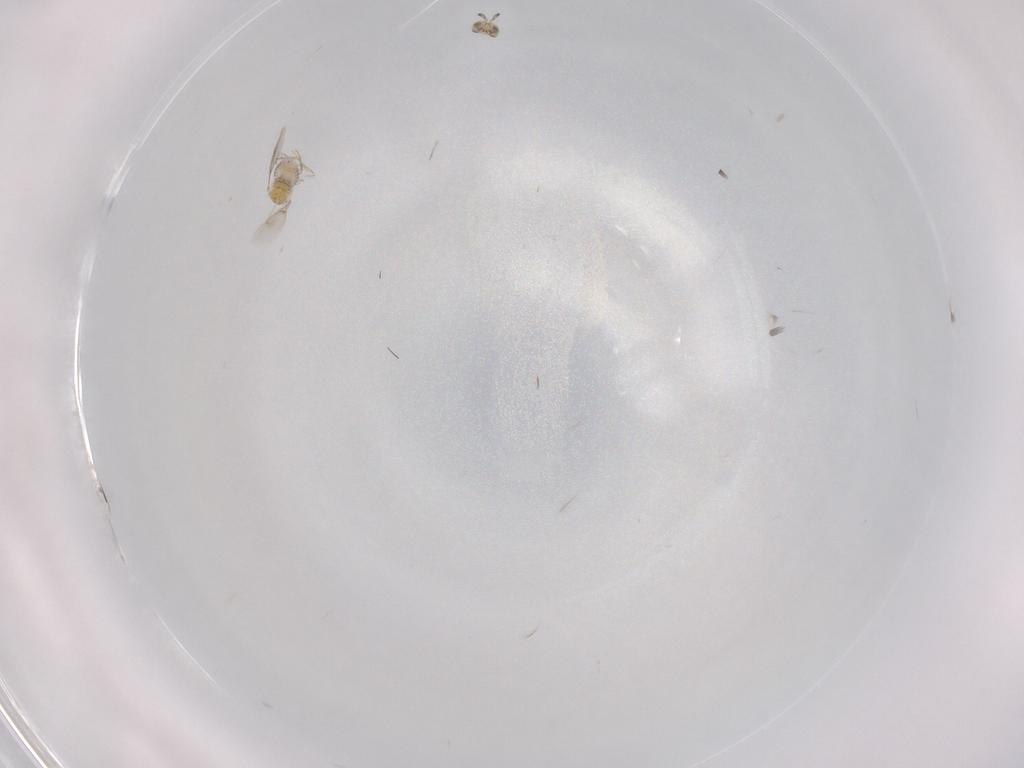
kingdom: Animalia
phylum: Arthropoda
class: Insecta
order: Hymenoptera
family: Aphelinidae
